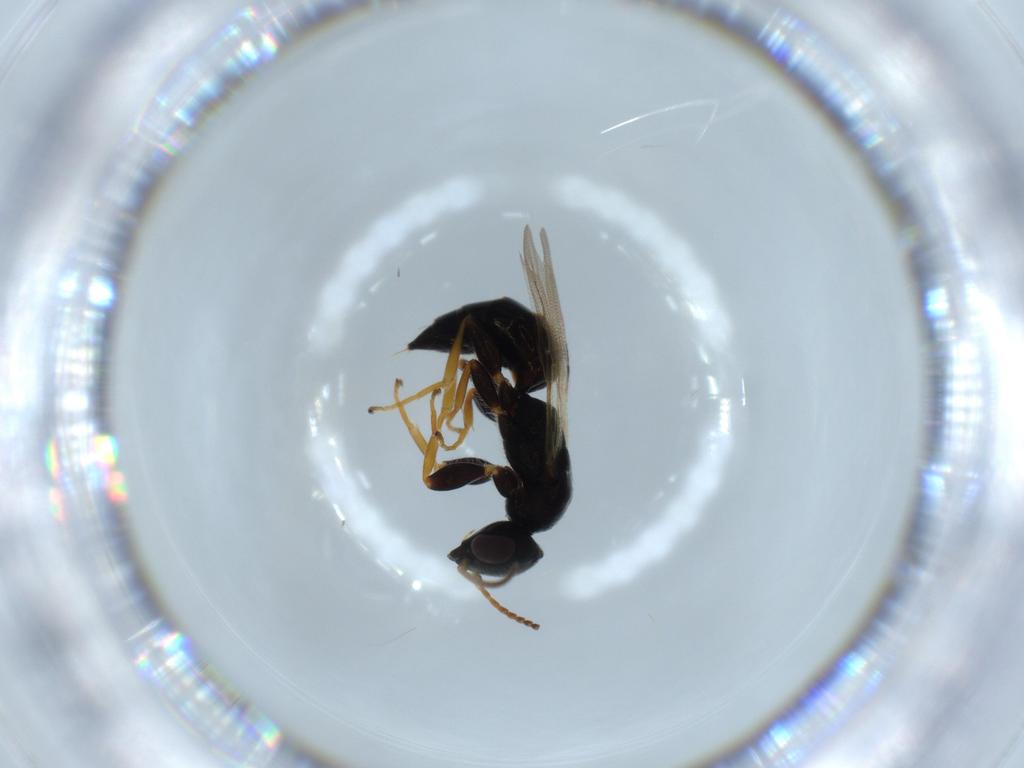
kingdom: Animalia
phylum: Arthropoda
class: Insecta
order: Hymenoptera
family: Bethylidae
